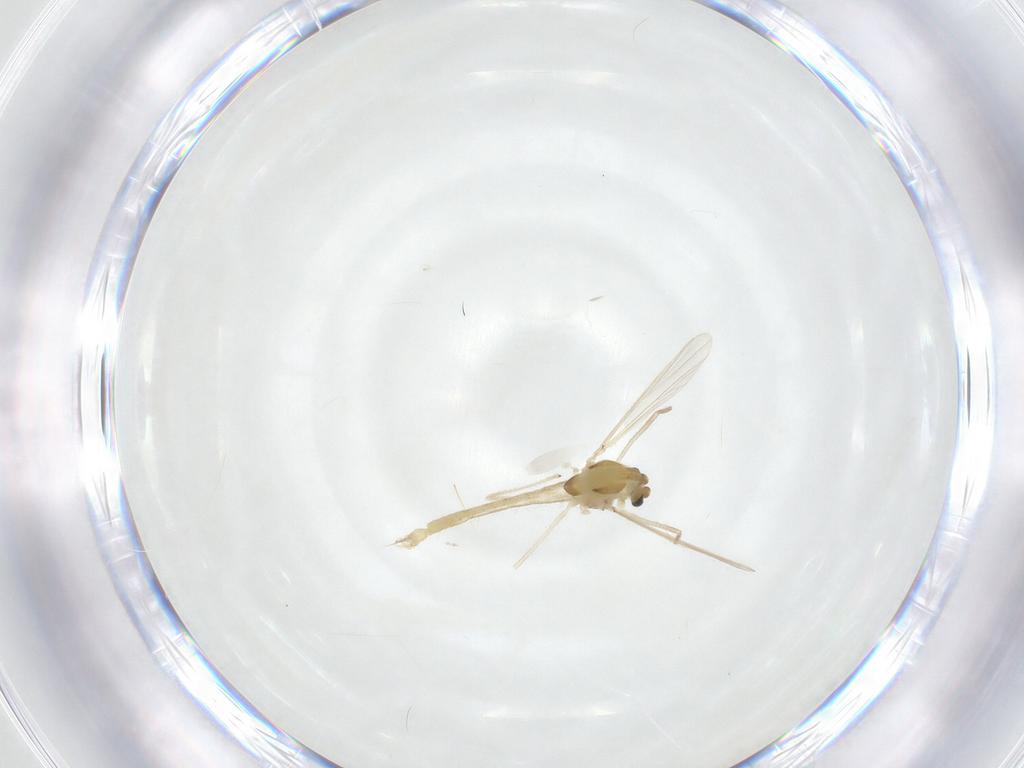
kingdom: Animalia
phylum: Arthropoda
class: Insecta
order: Diptera
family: Chironomidae
